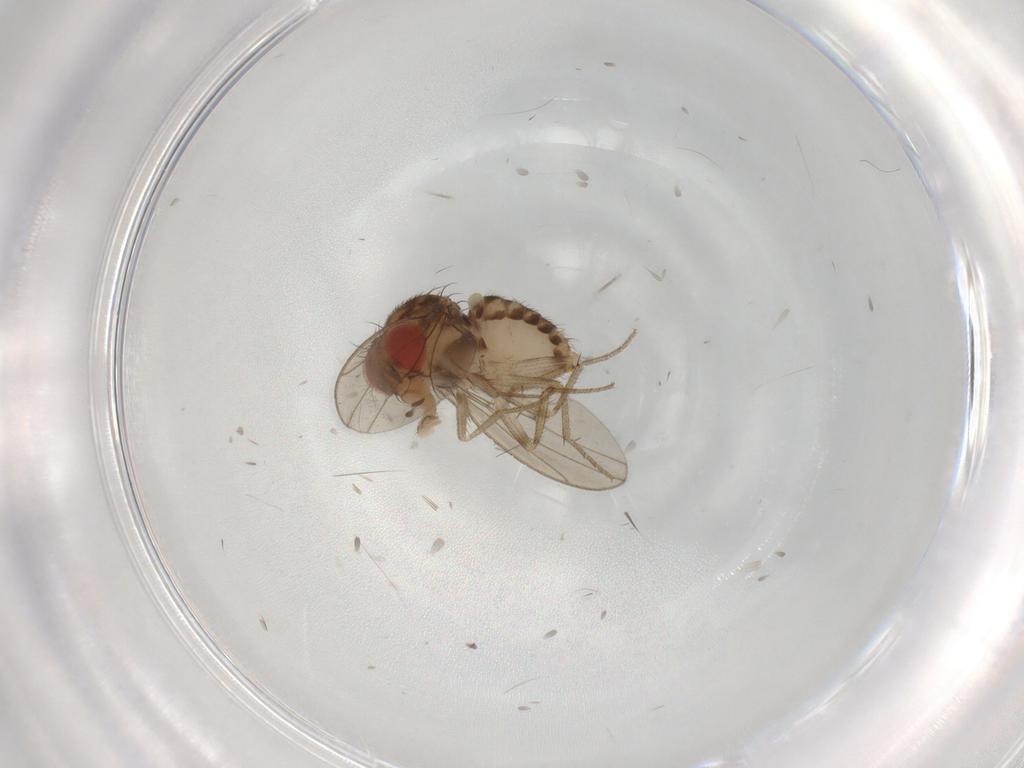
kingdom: Animalia
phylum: Arthropoda
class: Insecta
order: Diptera
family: Drosophilidae
